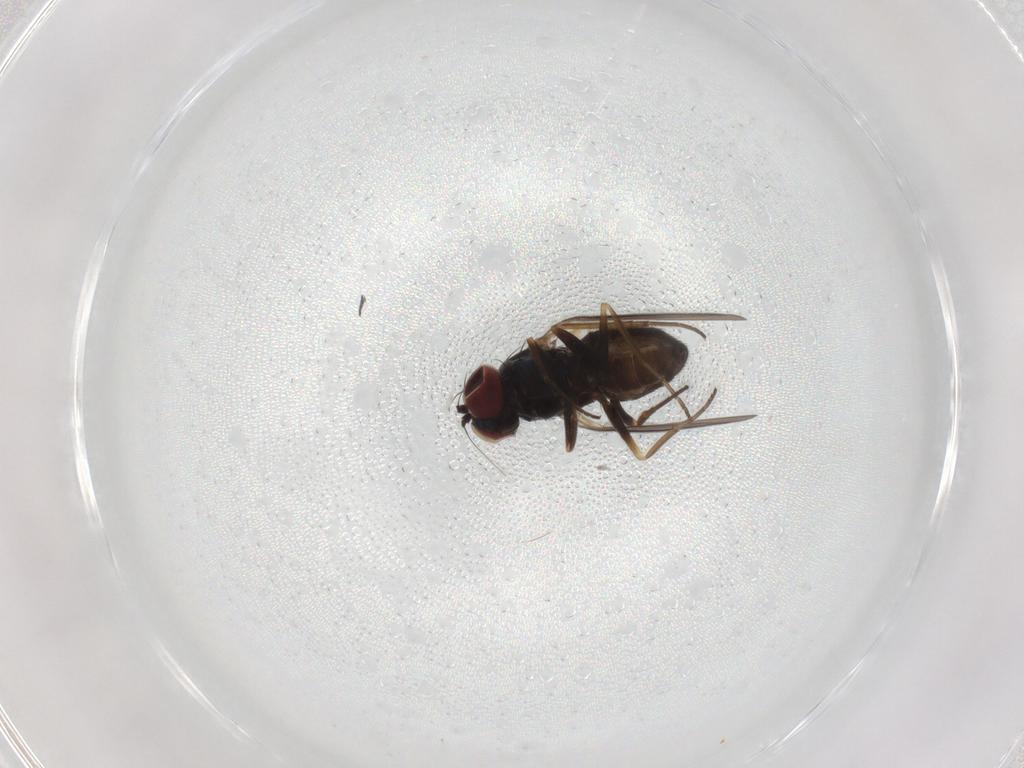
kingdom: Animalia
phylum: Arthropoda
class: Insecta
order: Diptera
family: Dolichopodidae
